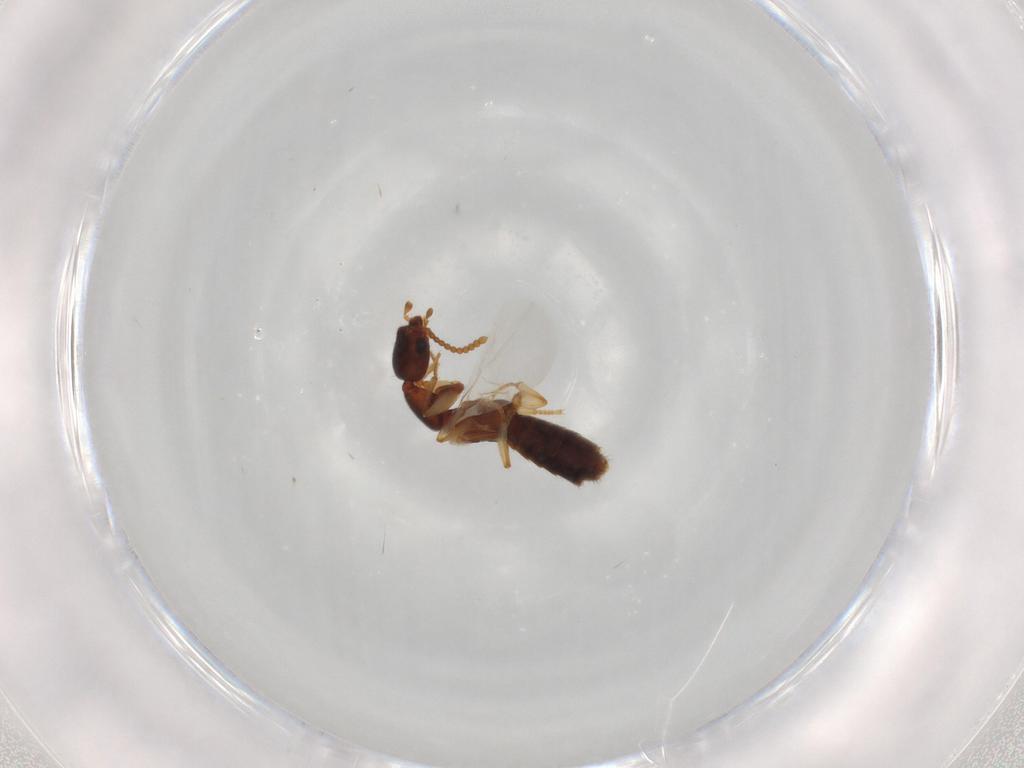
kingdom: Animalia
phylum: Arthropoda
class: Insecta
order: Coleoptera
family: Staphylinidae
